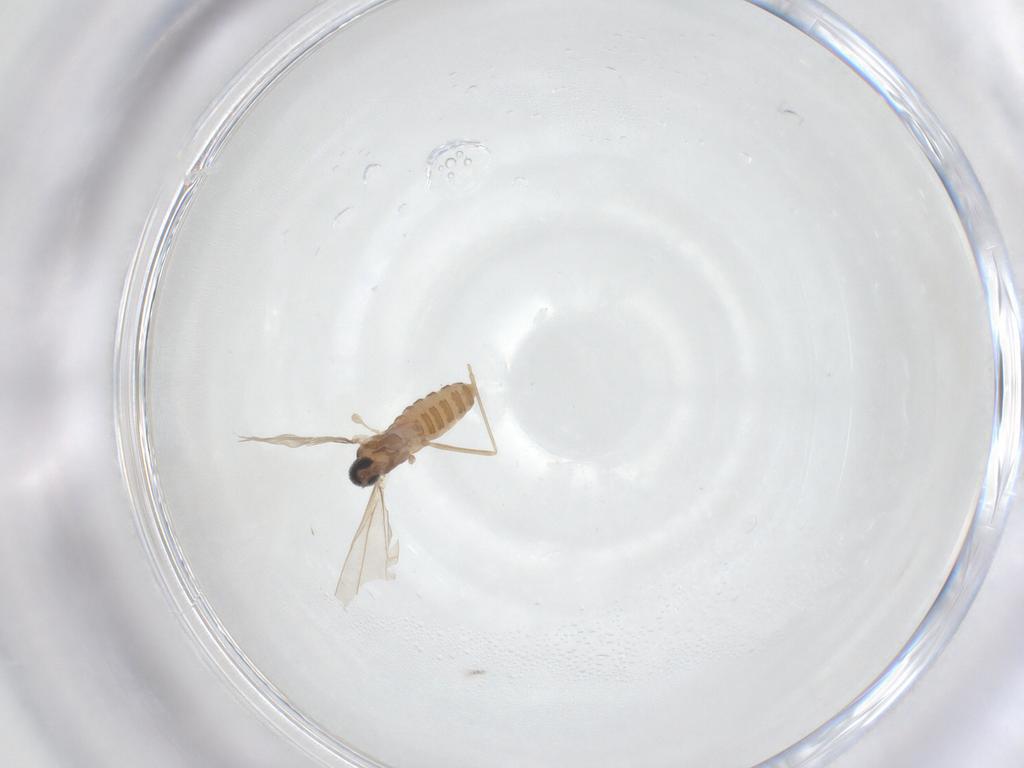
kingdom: Animalia
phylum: Arthropoda
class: Insecta
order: Diptera
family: Cecidomyiidae
